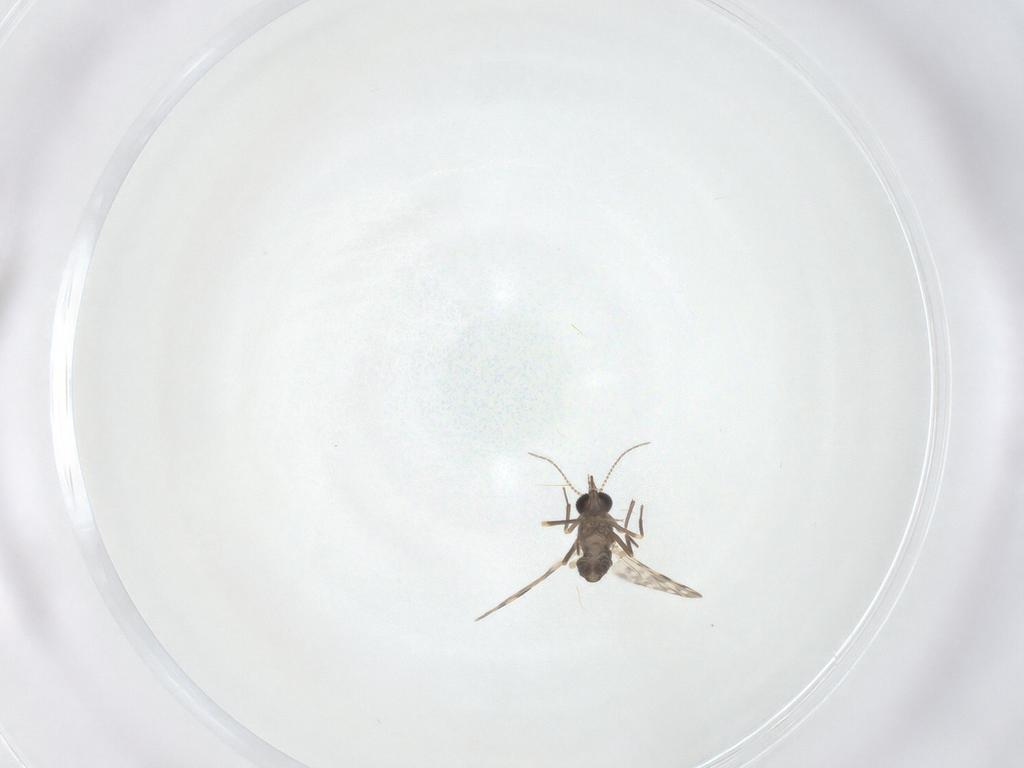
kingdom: Animalia
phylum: Arthropoda
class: Insecta
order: Diptera
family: Ceratopogonidae
